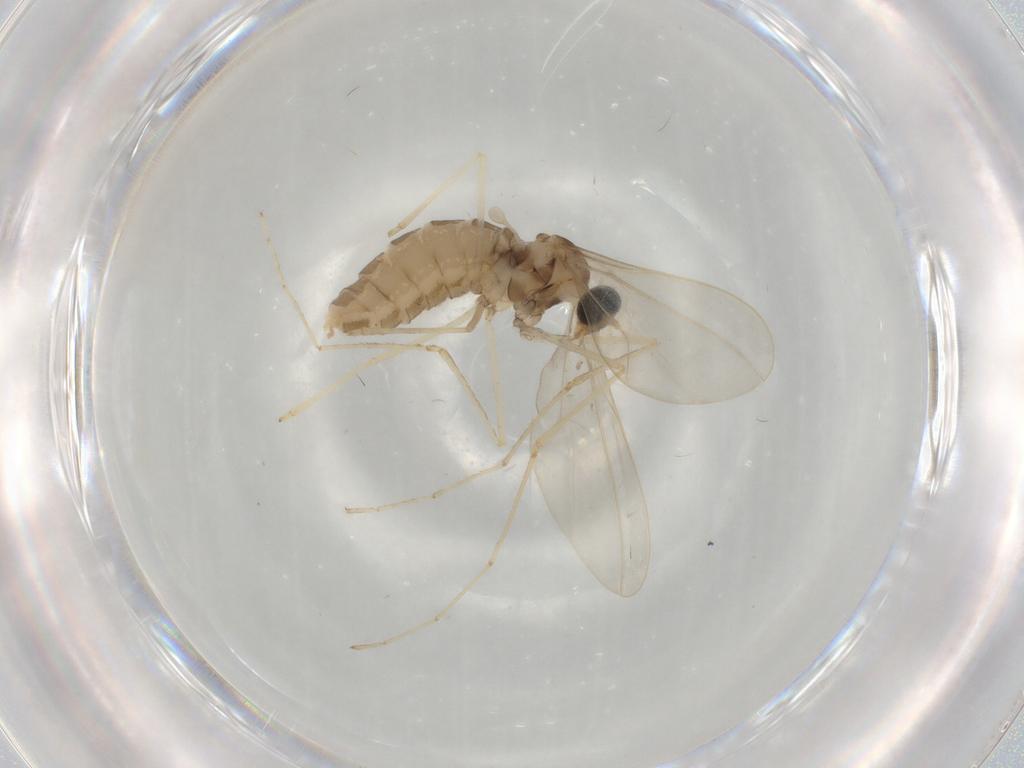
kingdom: Animalia
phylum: Arthropoda
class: Insecta
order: Diptera
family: Cecidomyiidae
